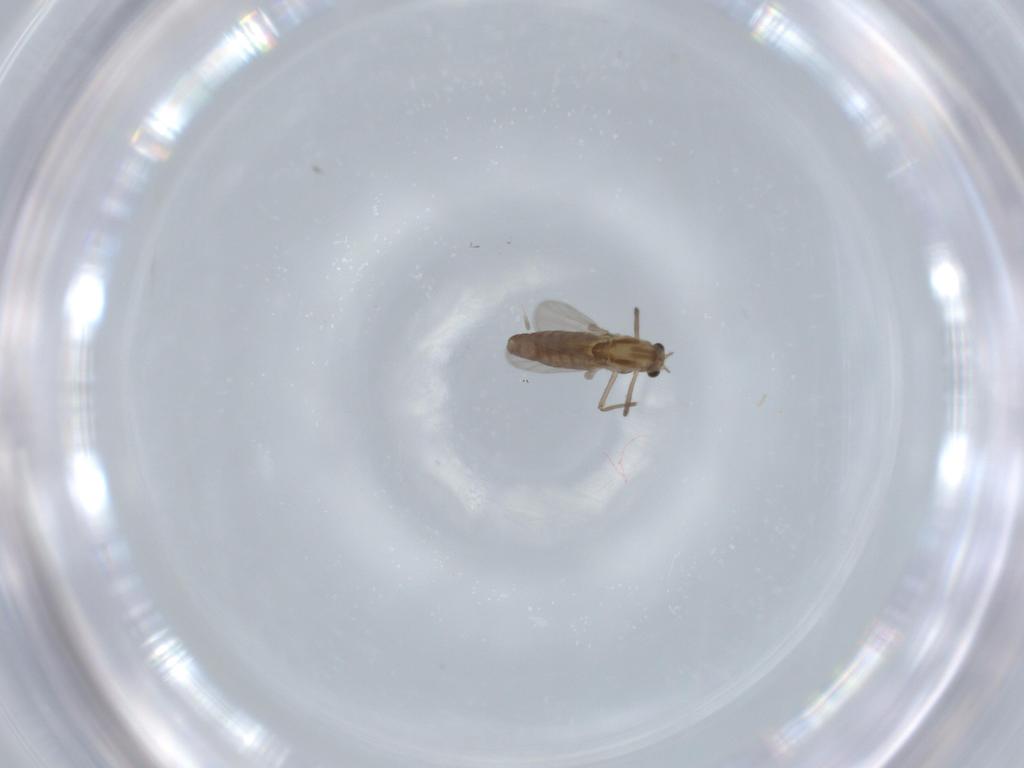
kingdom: Animalia
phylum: Arthropoda
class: Insecta
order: Diptera
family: Chironomidae
